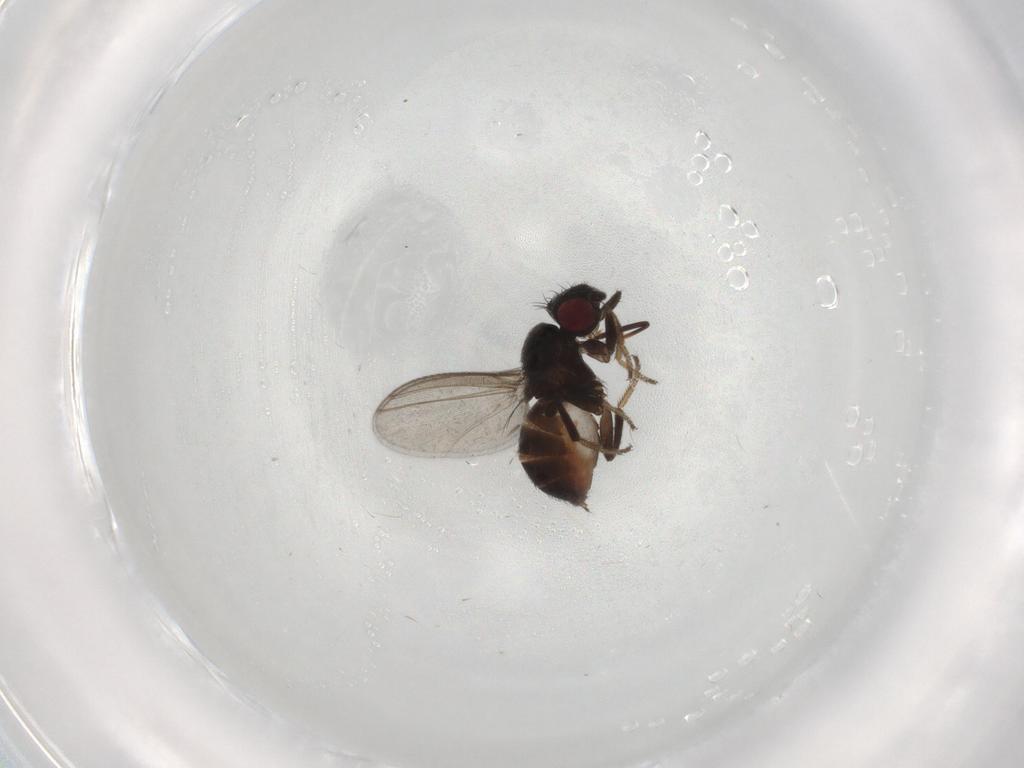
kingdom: Animalia
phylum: Arthropoda
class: Insecta
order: Diptera
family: Milichiidae
